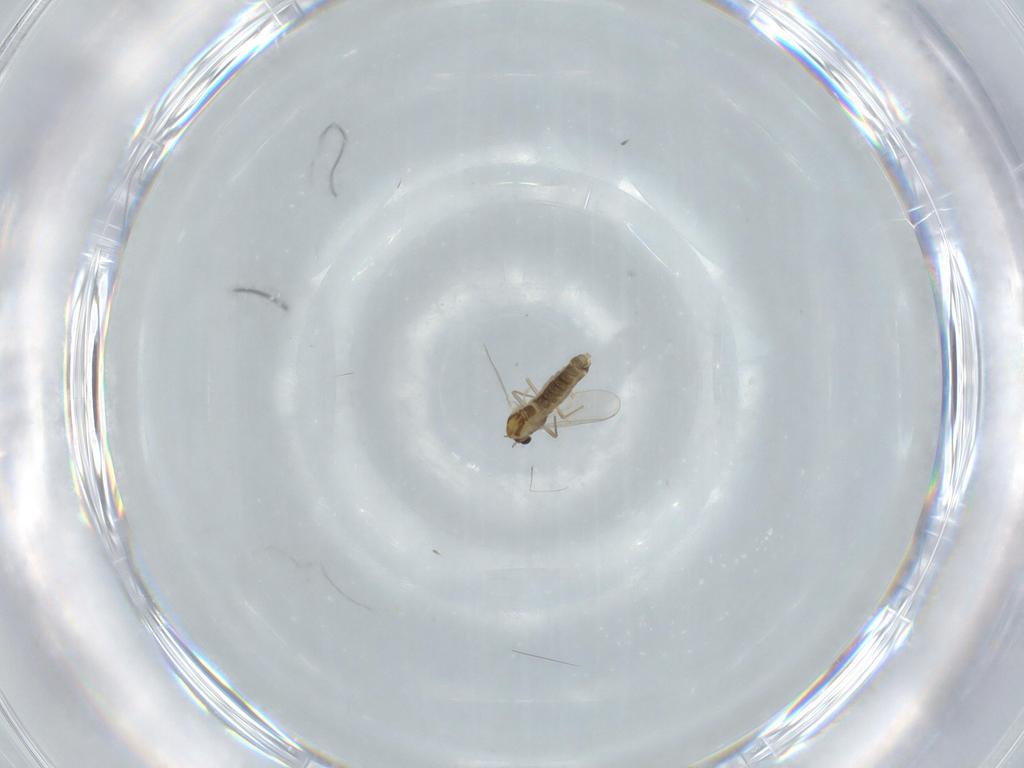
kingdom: Animalia
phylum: Arthropoda
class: Insecta
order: Diptera
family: Chironomidae
